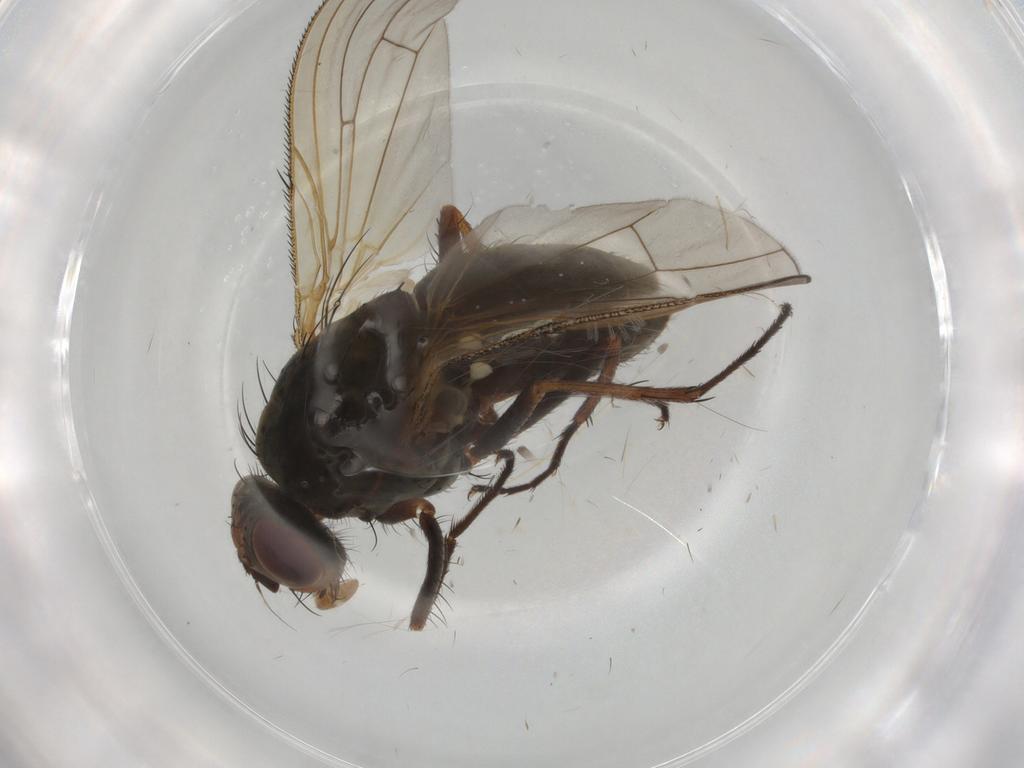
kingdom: Animalia
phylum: Arthropoda
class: Insecta
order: Diptera
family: Anthomyiidae
